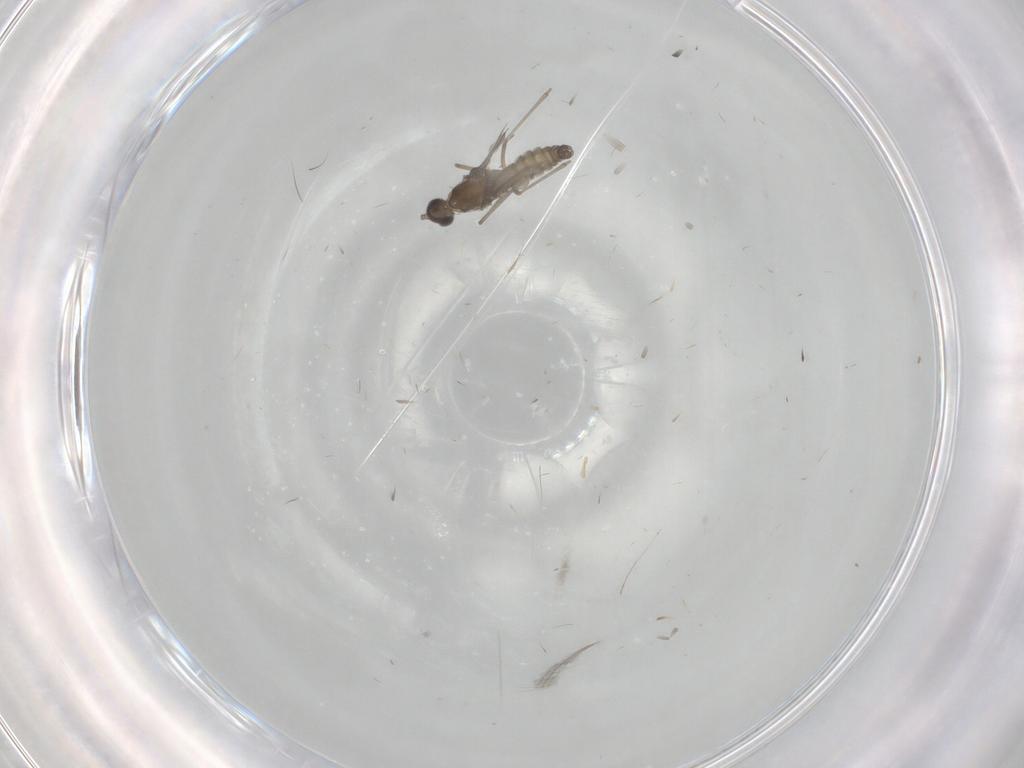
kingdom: Animalia
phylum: Arthropoda
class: Insecta
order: Diptera
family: Cecidomyiidae
